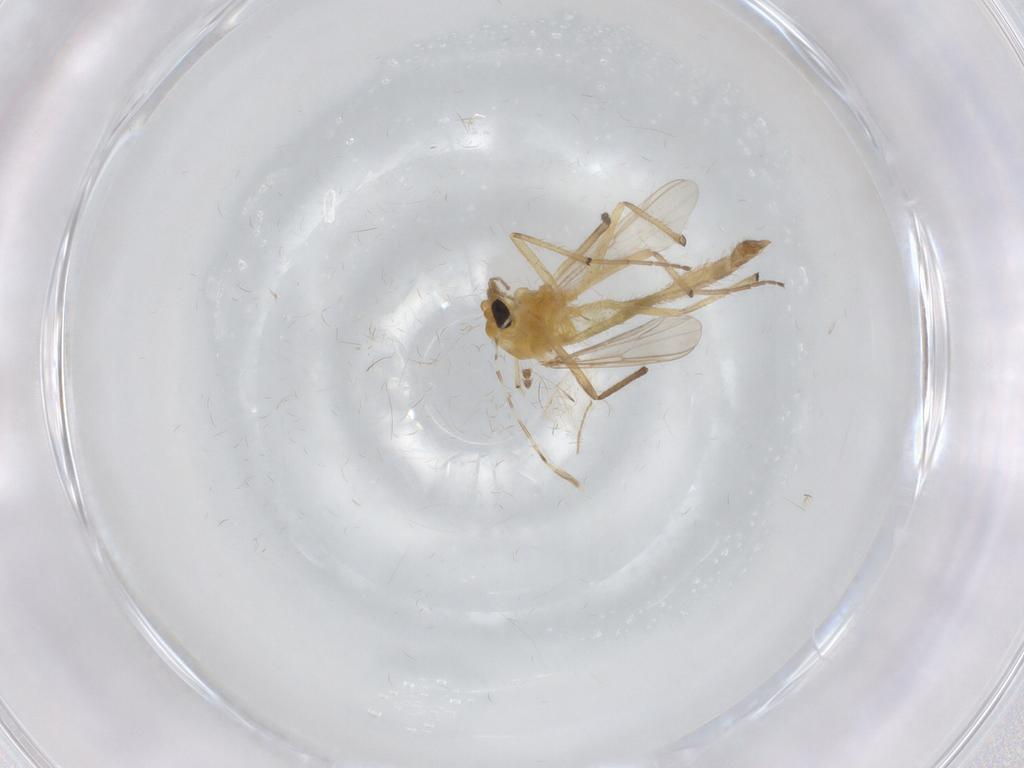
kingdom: Animalia
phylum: Arthropoda
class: Insecta
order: Diptera
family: Chironomidae
